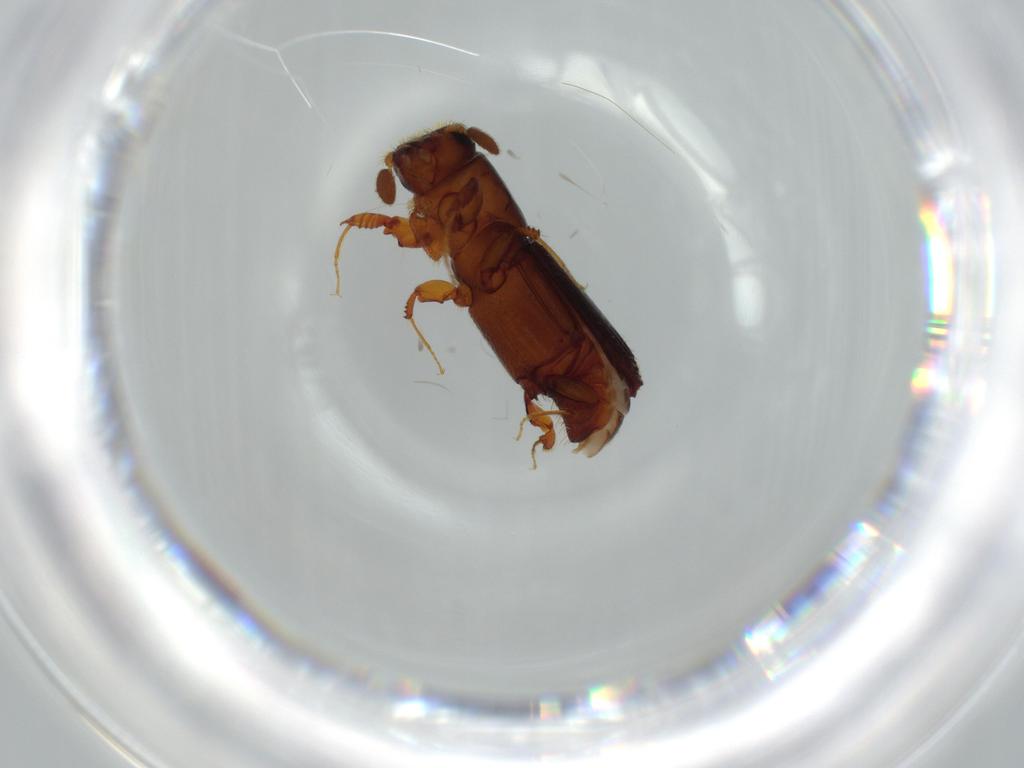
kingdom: Animalia
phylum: Arthropoda
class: Insecta
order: Coleoptera
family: Curculionidae
